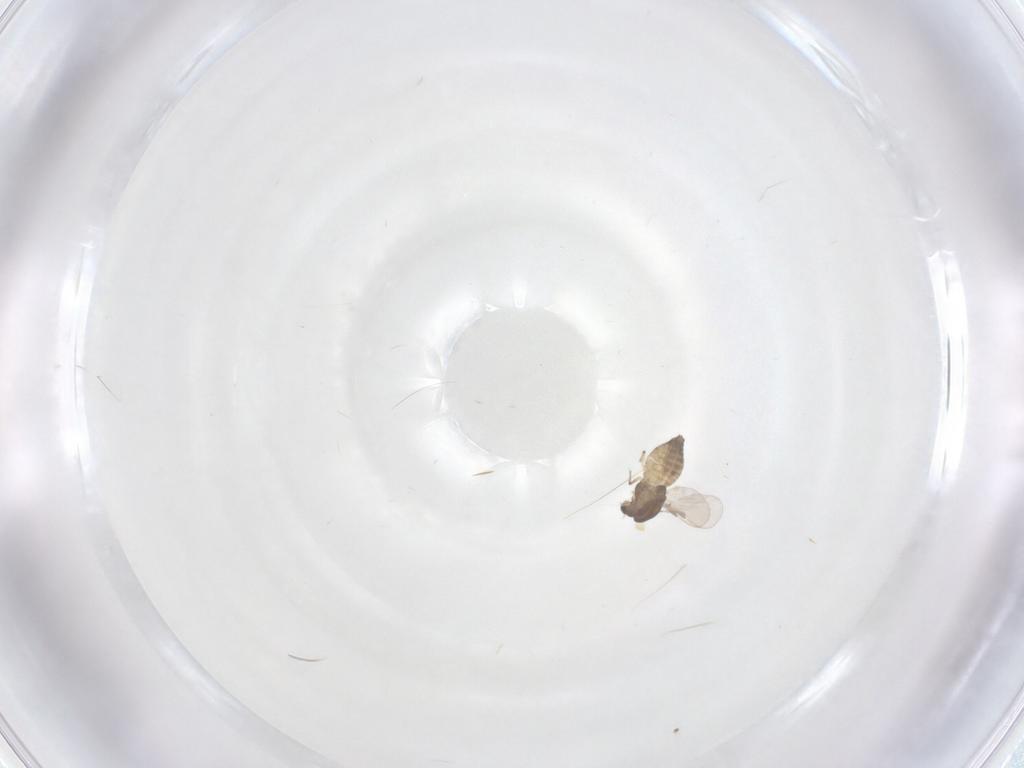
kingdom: Animalia
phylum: Arthropoda
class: Insecta
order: Diptera
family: Chironomidae
